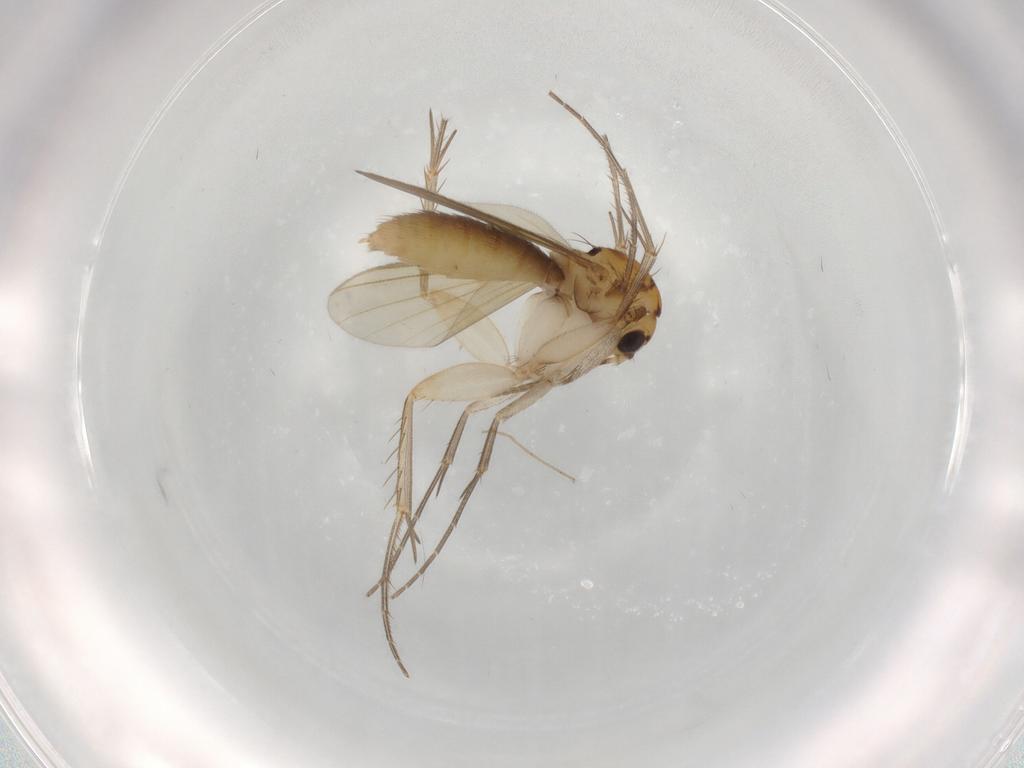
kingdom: Animalia
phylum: Arthropoda
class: Insecta
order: Diptera
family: Mycetophilidae
